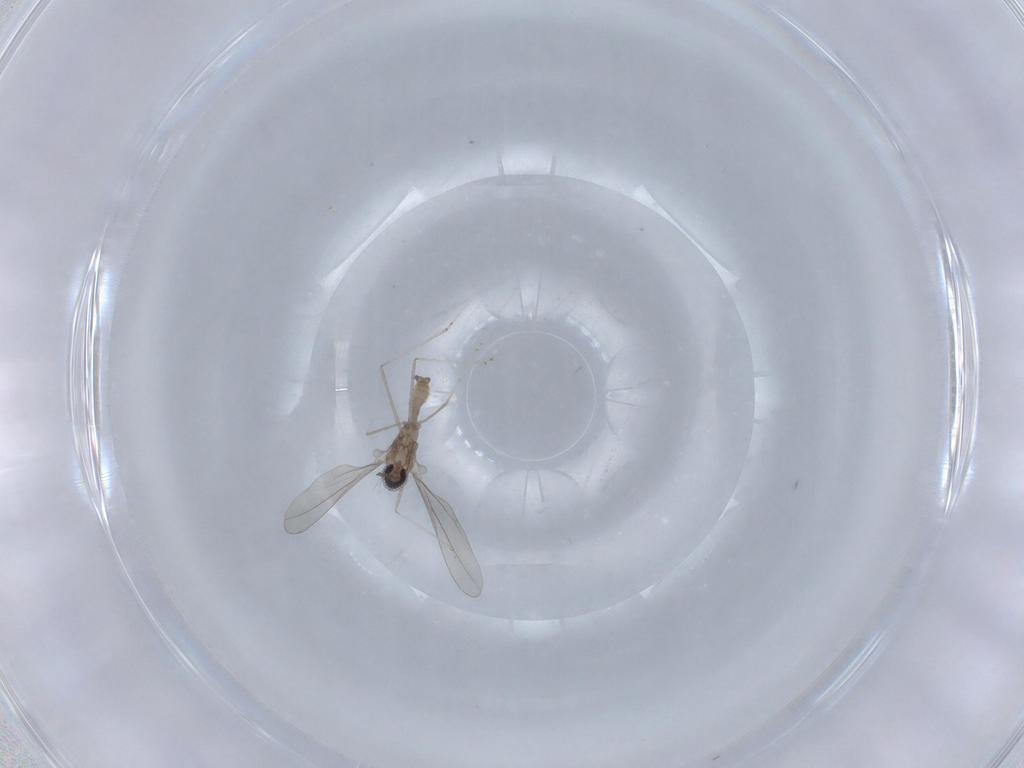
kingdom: Animalia
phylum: Arthropoda
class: Insecta
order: Diptera
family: Cecidomyiidae
